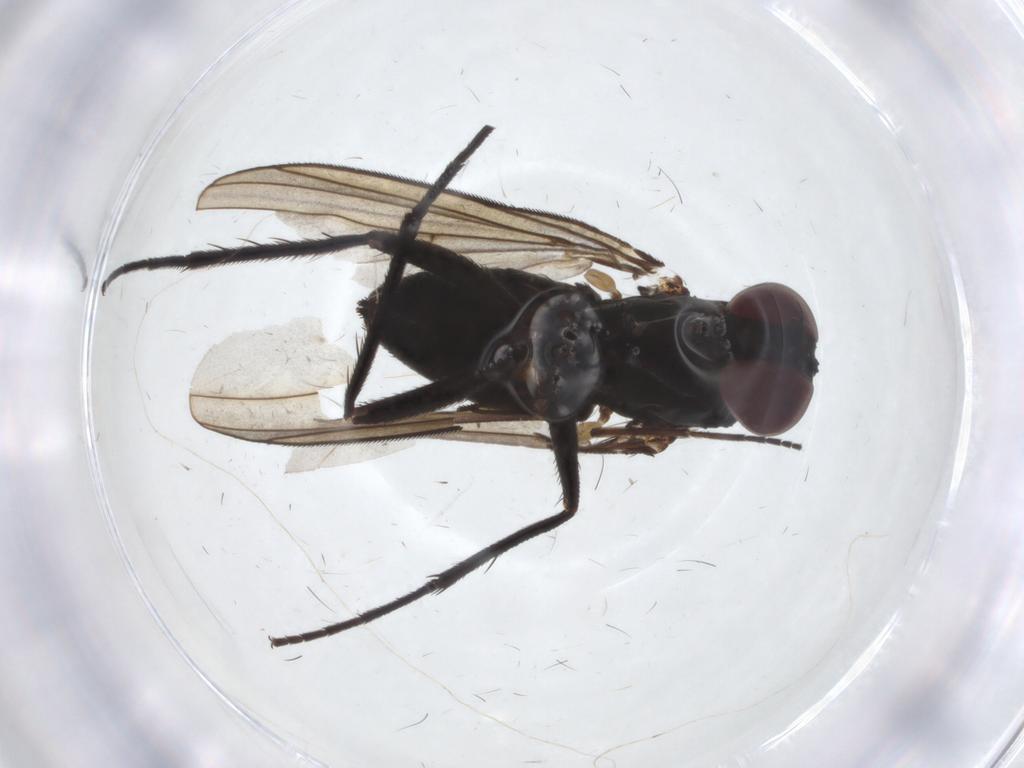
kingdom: Animalia
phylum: Arthropoda
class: Insecta
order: Diptera
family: Dolichopodidae
